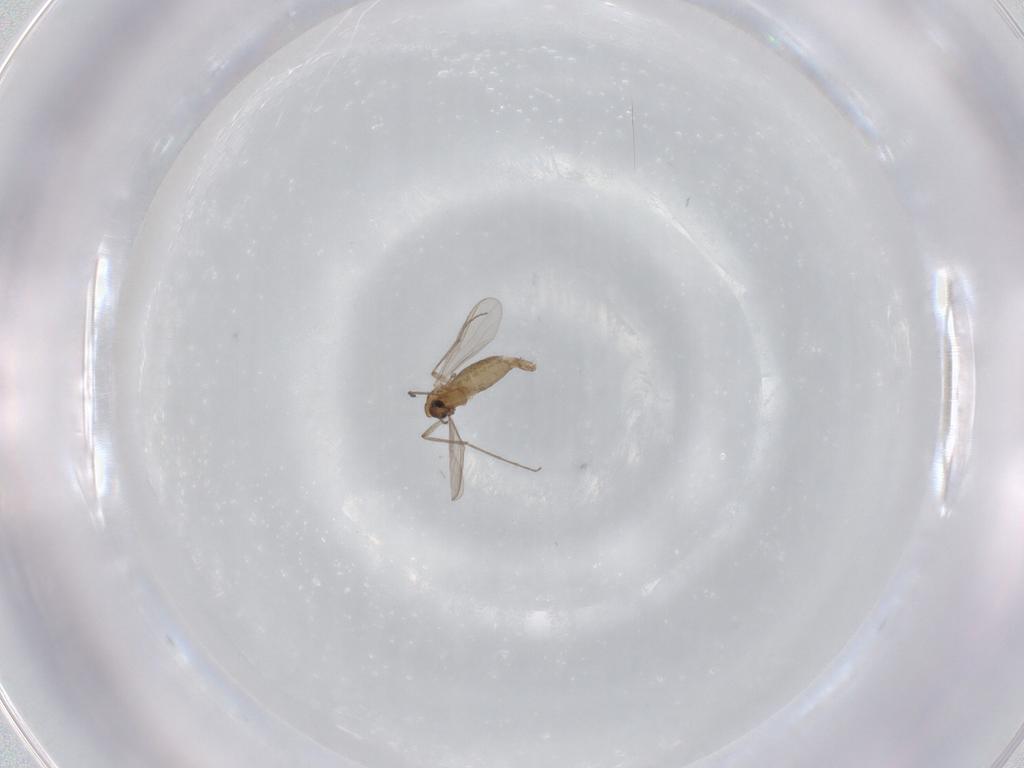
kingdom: Animalia
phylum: Arthropoda
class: Insecta
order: Diptera
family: Chironomidae
